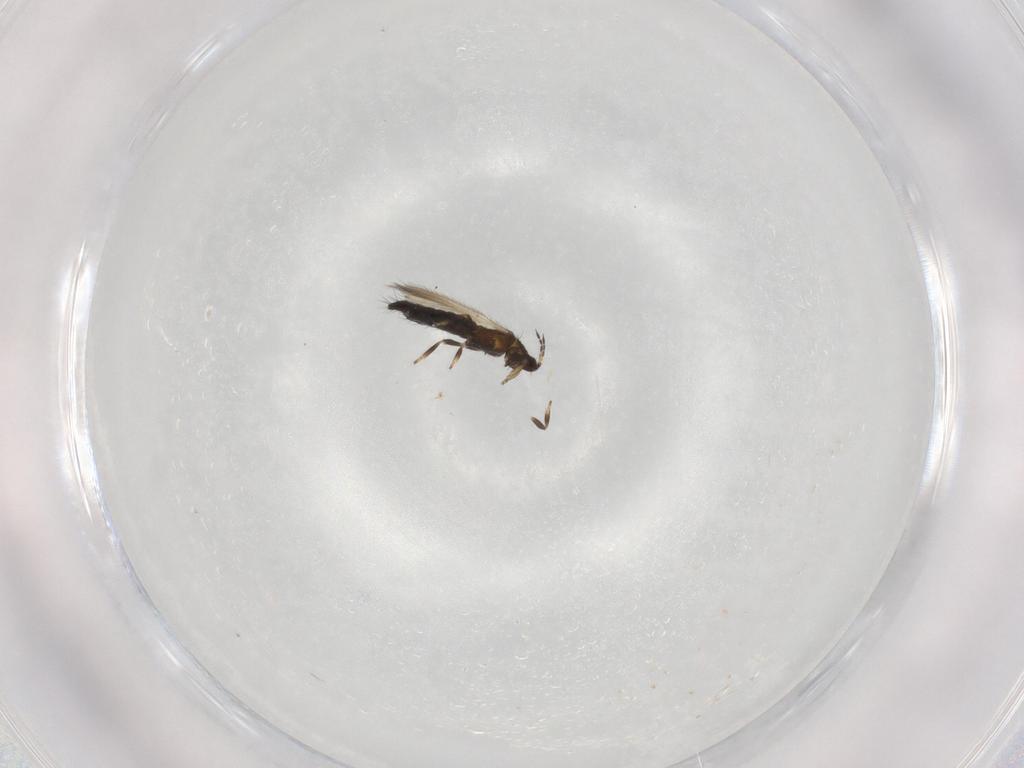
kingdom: Animalia
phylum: Arthropoda
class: Insecta
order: Thysanoptera
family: Thripidae
